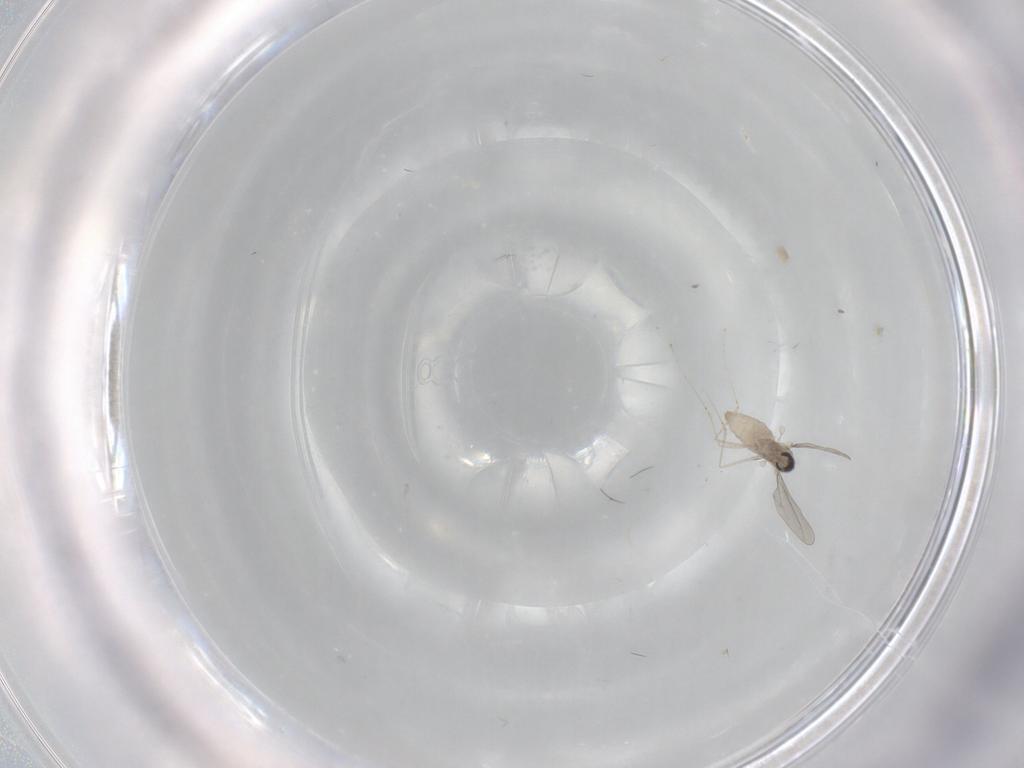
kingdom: Animalia
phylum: Arthropoda
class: Insecta
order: Diptera
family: Cecidomyiidae
